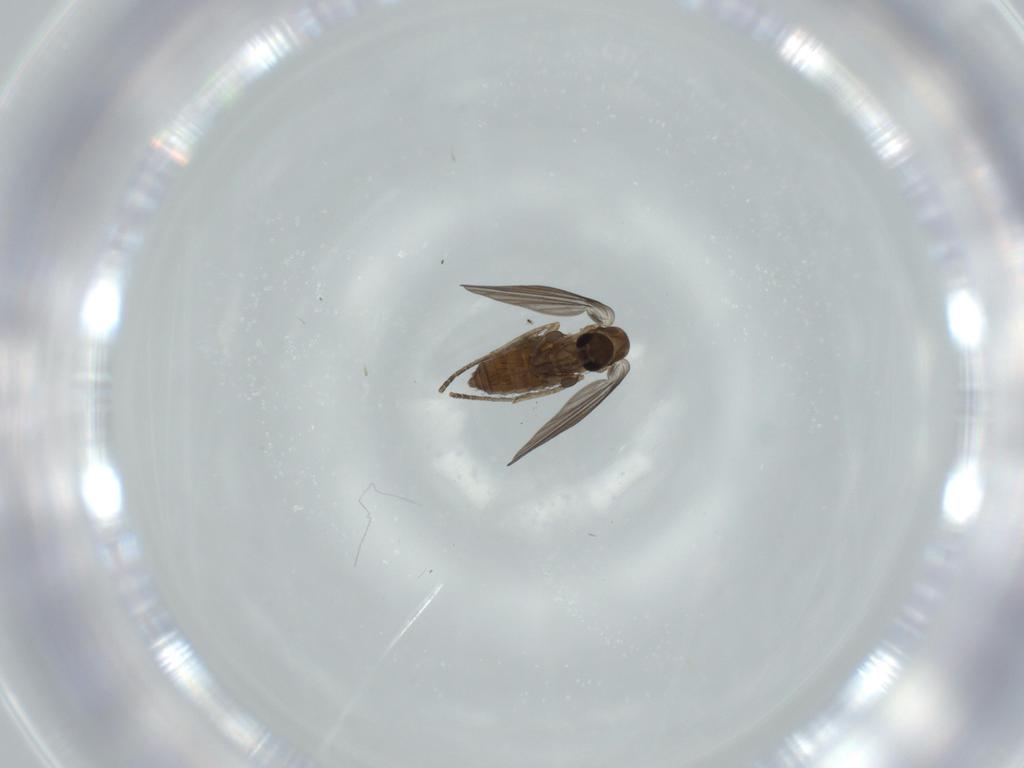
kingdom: Animalia
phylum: Arthropoda
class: Insecta
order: Diptera
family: Psychodidae
